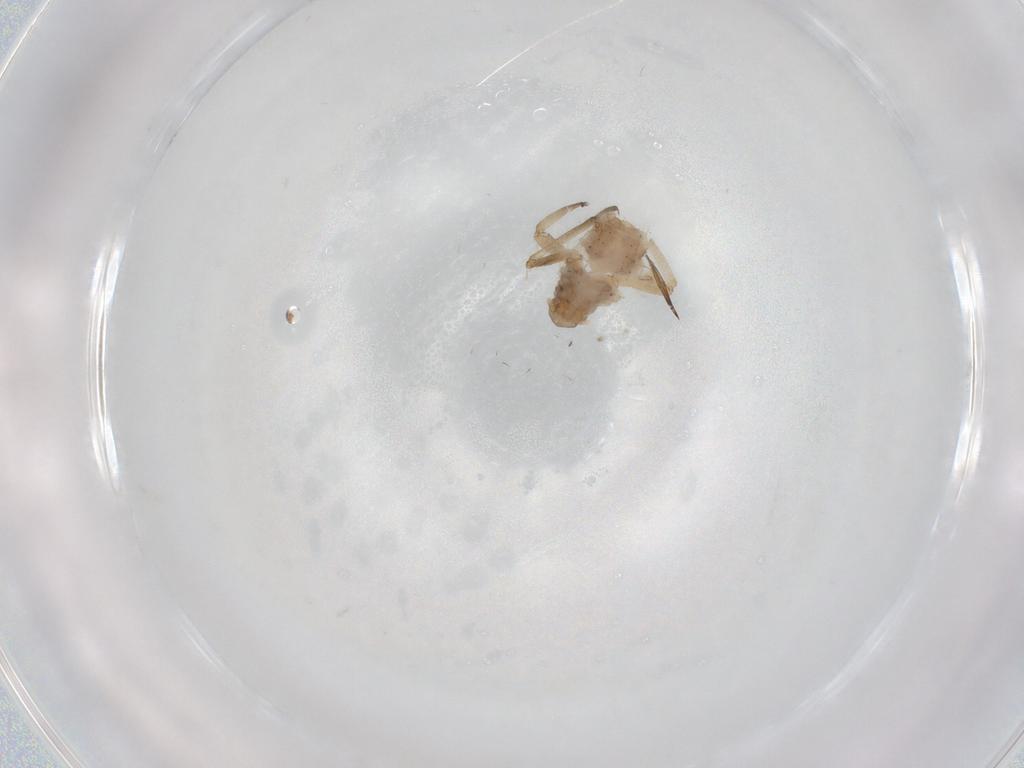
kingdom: Animalia
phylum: Arthropoda
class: Insecta
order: Hemiptera
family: Aphididae
